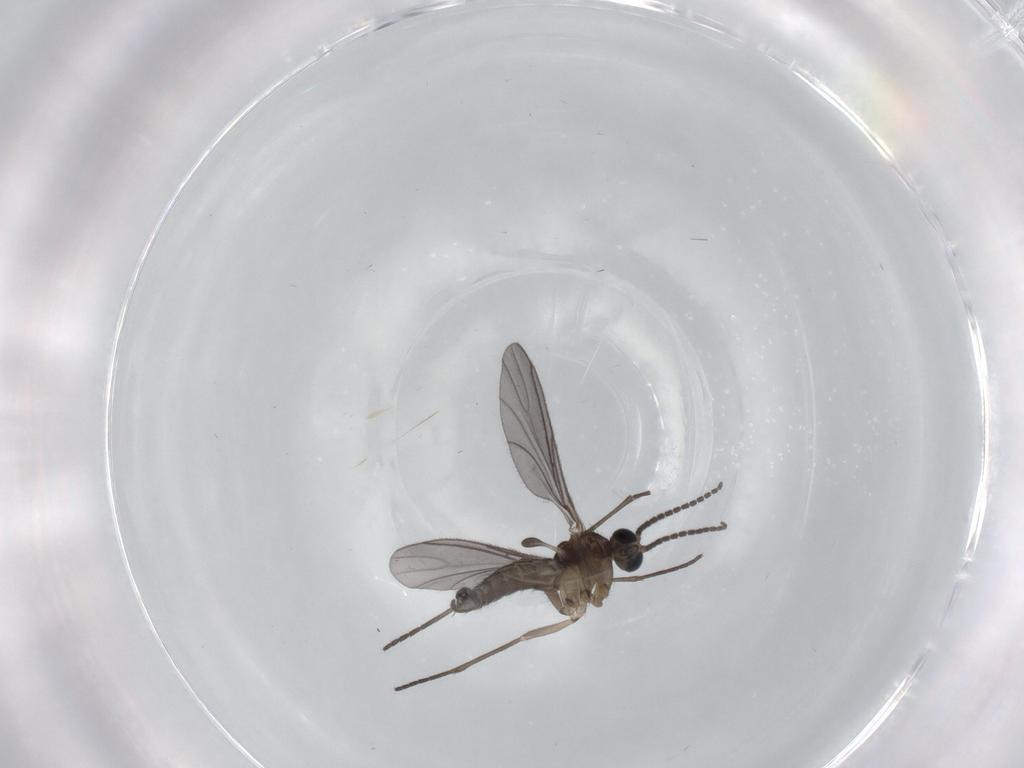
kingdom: Animalia
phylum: Arthropoda
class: Insecta
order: Diptera
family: Sciaridae
